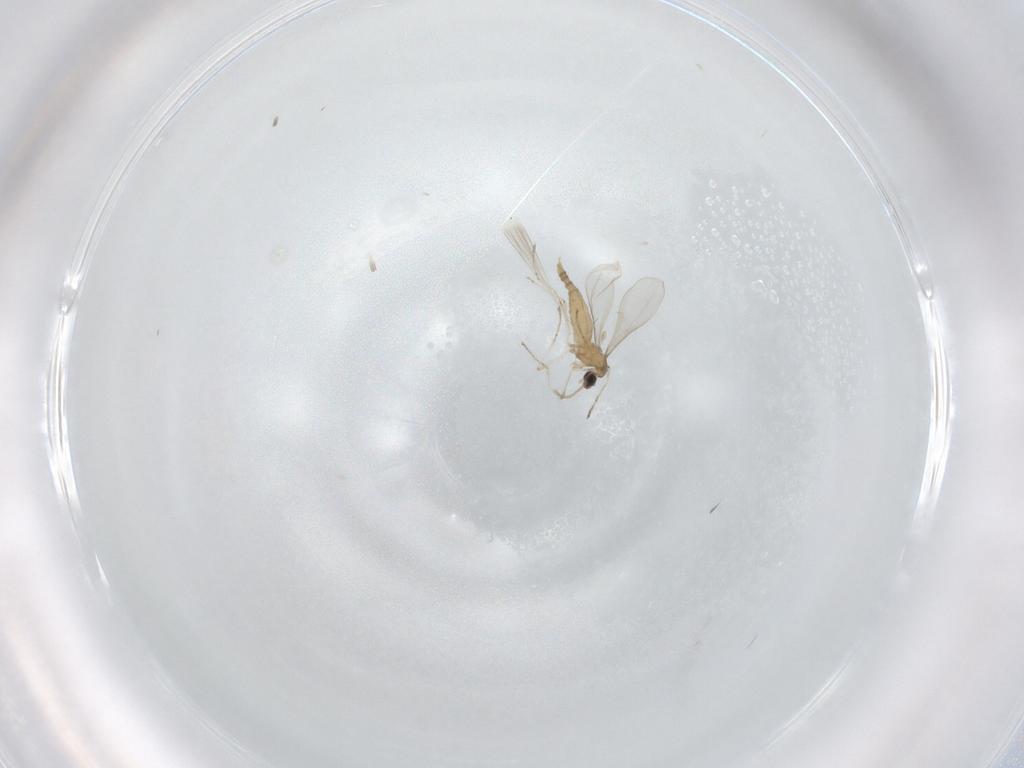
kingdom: Animalia
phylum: Arthropoda
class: Insecta
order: Diptera
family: Cecidomyiidae
